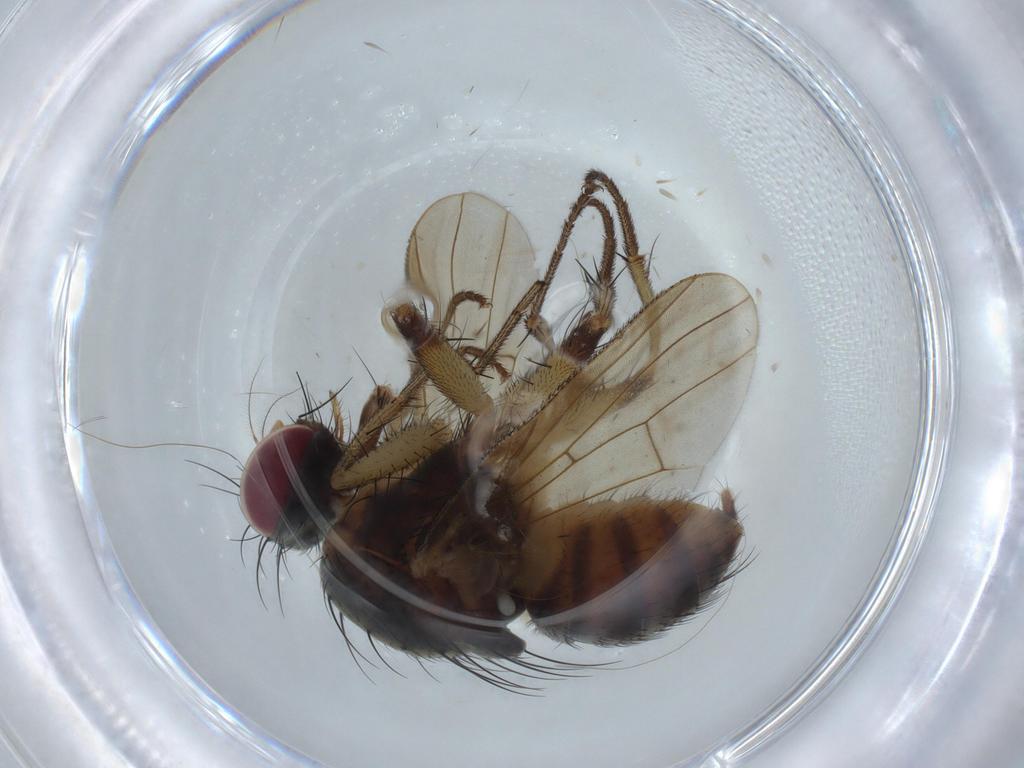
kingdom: Animalia
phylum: Arthropoda
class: Insecta
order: Diptera
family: Muscidae
